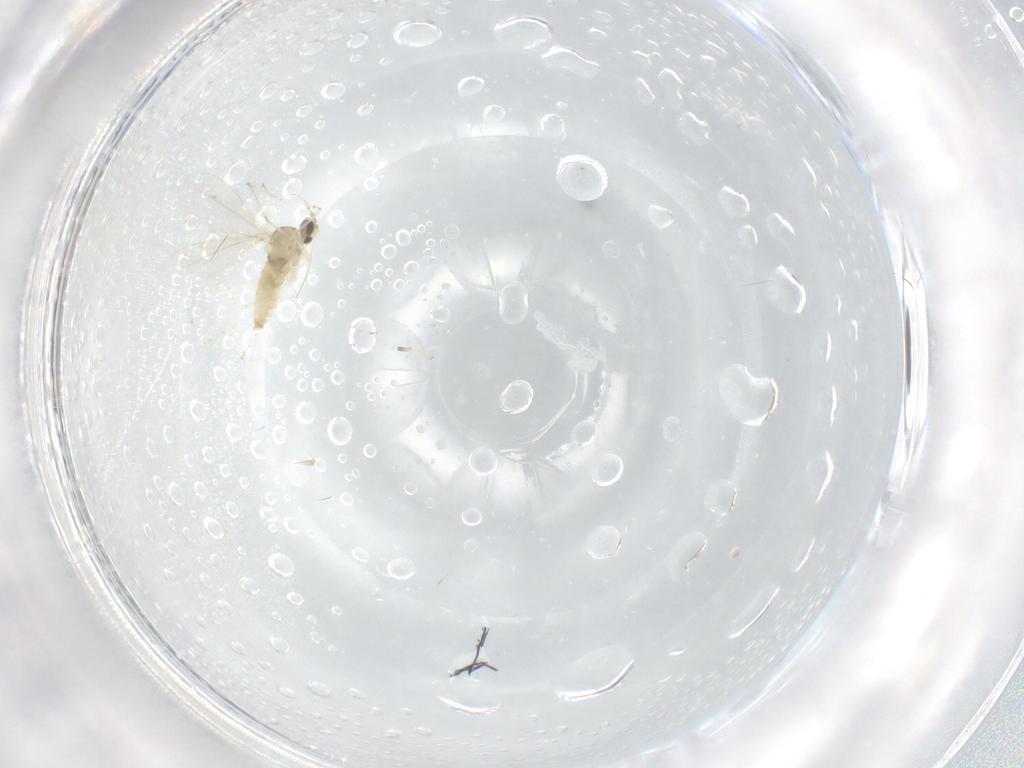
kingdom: Animalia
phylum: Arthropoda
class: Insecta
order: Diptera
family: Cecidomyiidae
